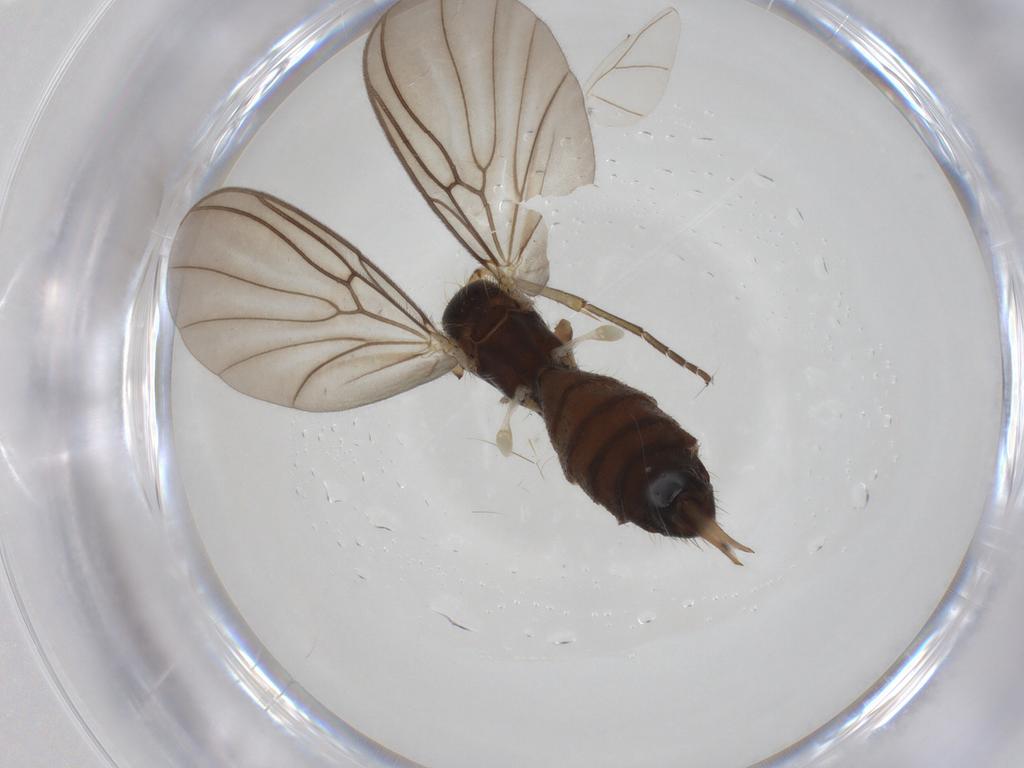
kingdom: Animalia
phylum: Arthropoda
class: Insecta
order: Diptera
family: Mycetophilidae
